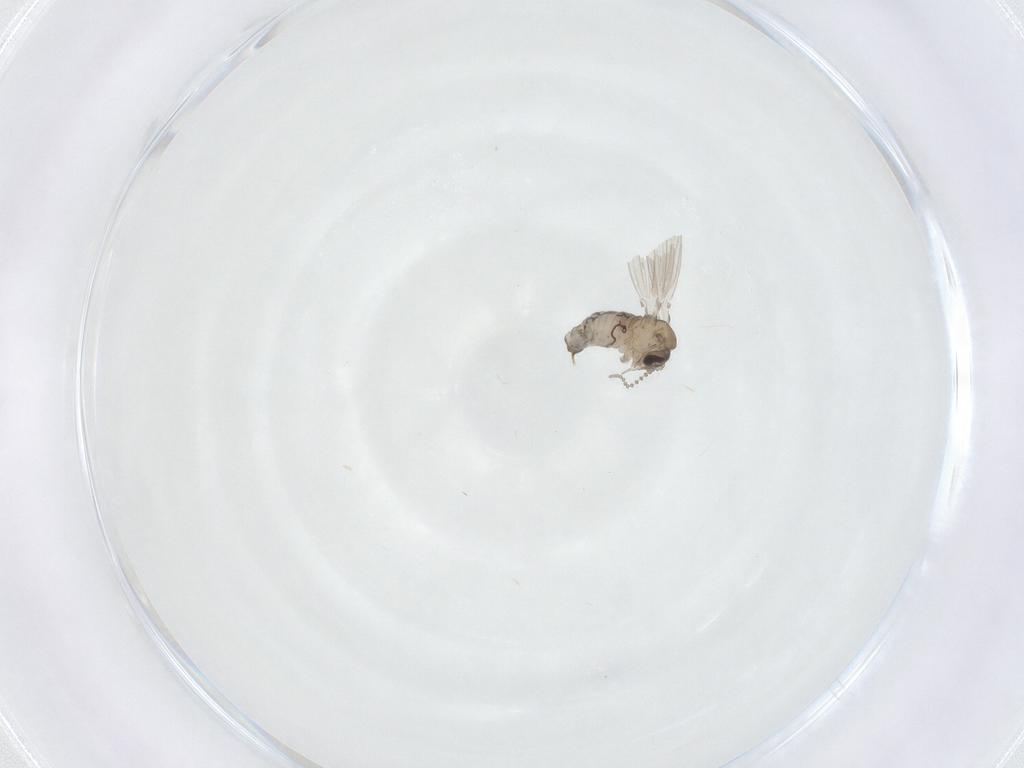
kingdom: Animalia
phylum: Arthropoda
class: Insecta
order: Diptera
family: Psychodidae
